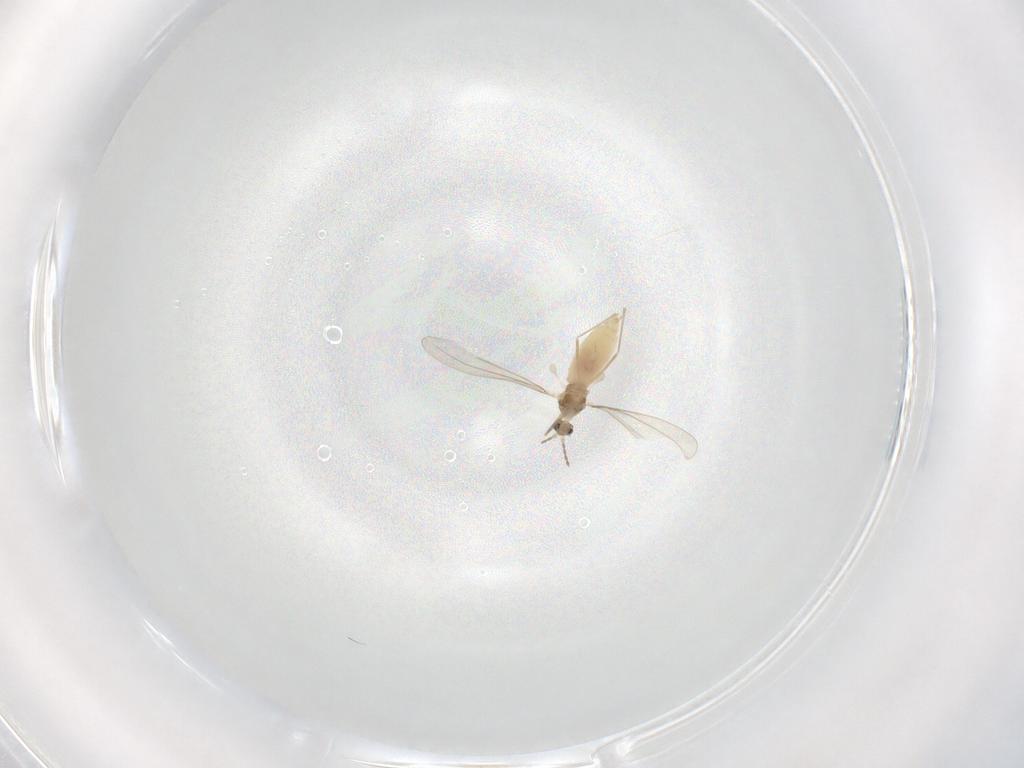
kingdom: Animalia
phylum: Arthropoda
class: Insecta
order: Diptera
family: Cecidomyiidae
